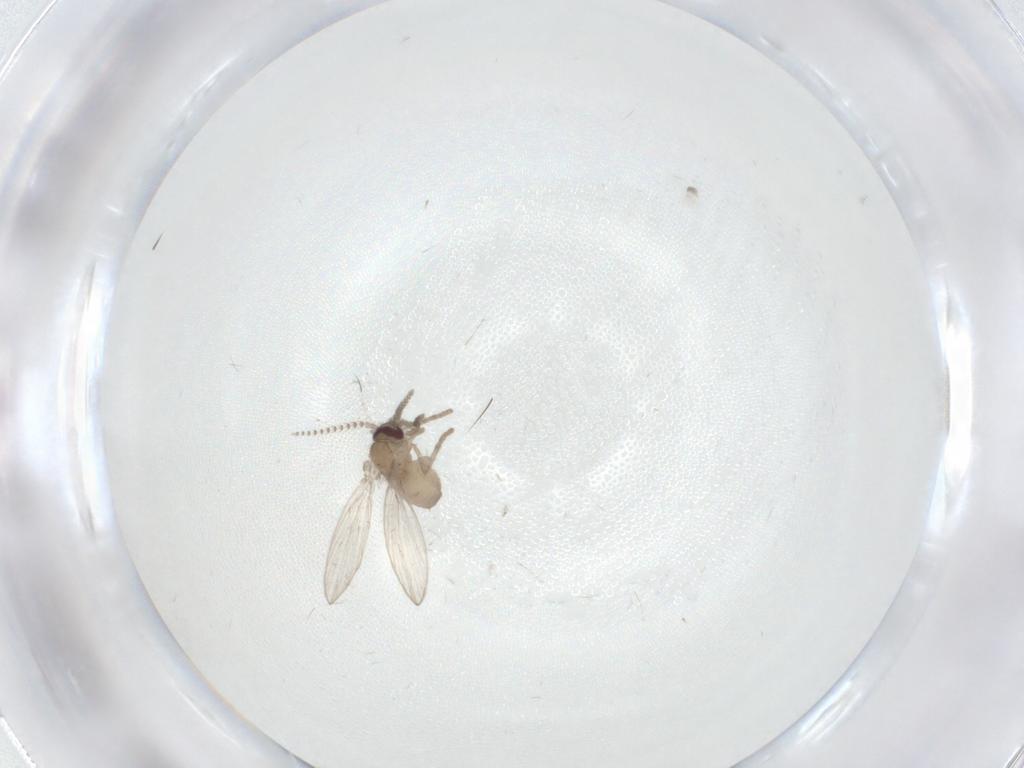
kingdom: Animalia
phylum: Arthropoda
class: Insecta
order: Diptera
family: Psychodidae
